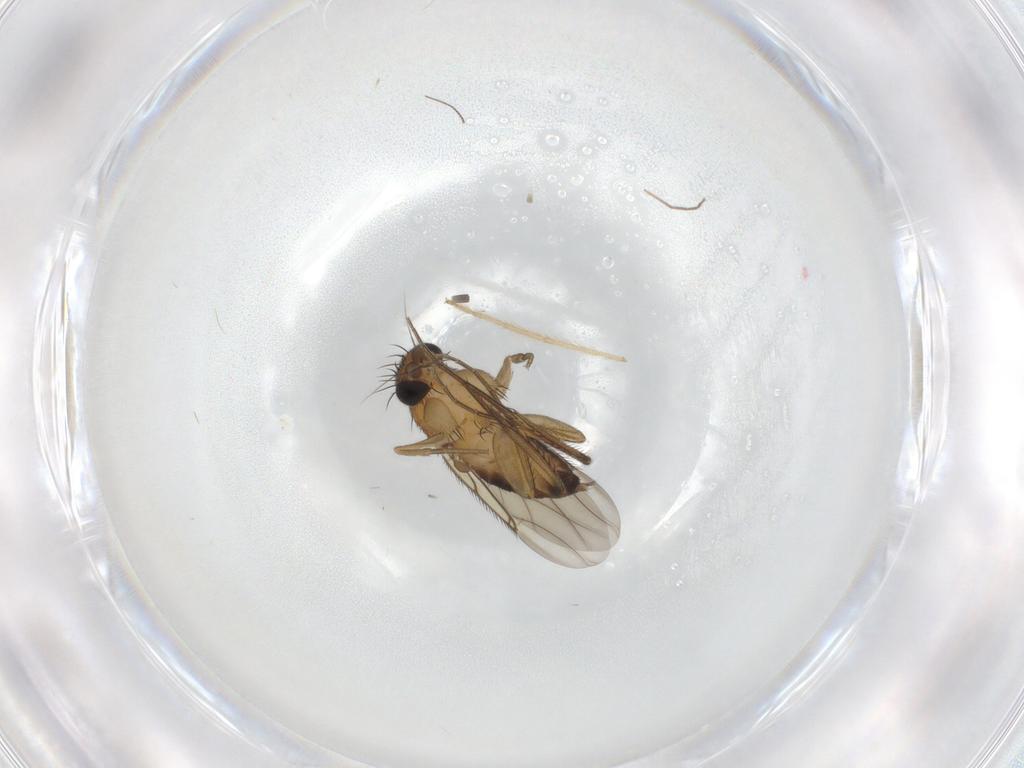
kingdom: Animalia
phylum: Arthropoda
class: Insecta
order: Diptera
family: Phoridae
